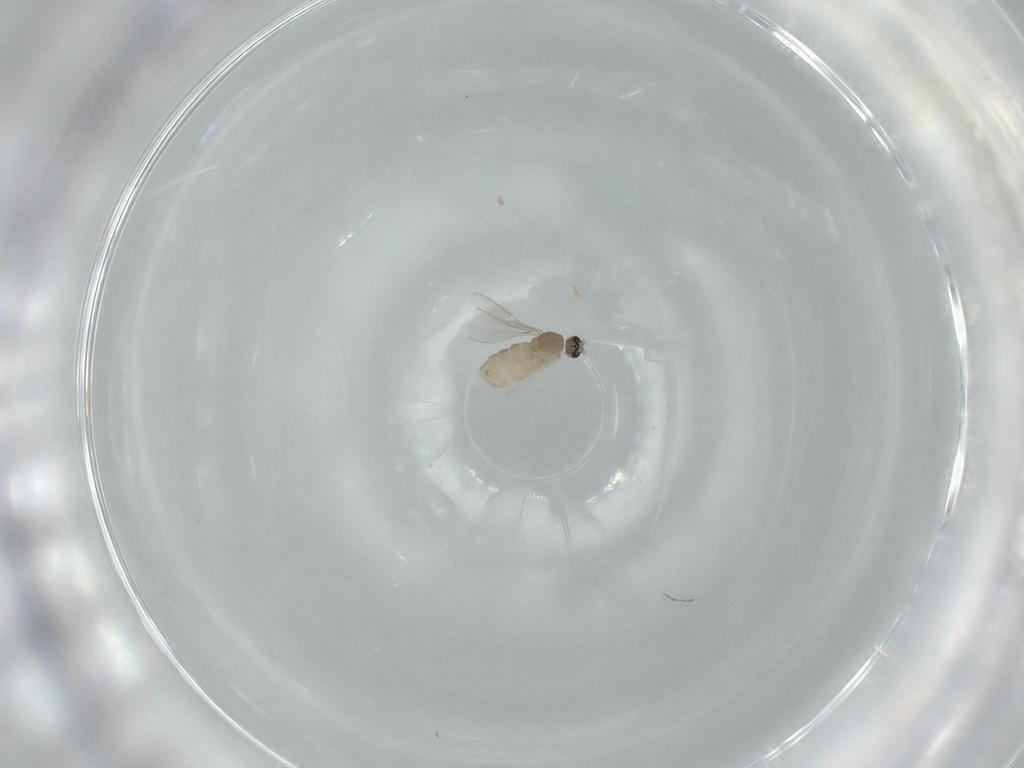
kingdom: Animalia
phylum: Arthropoda
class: Insecta
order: Diptera
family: Cecidomyiidae
